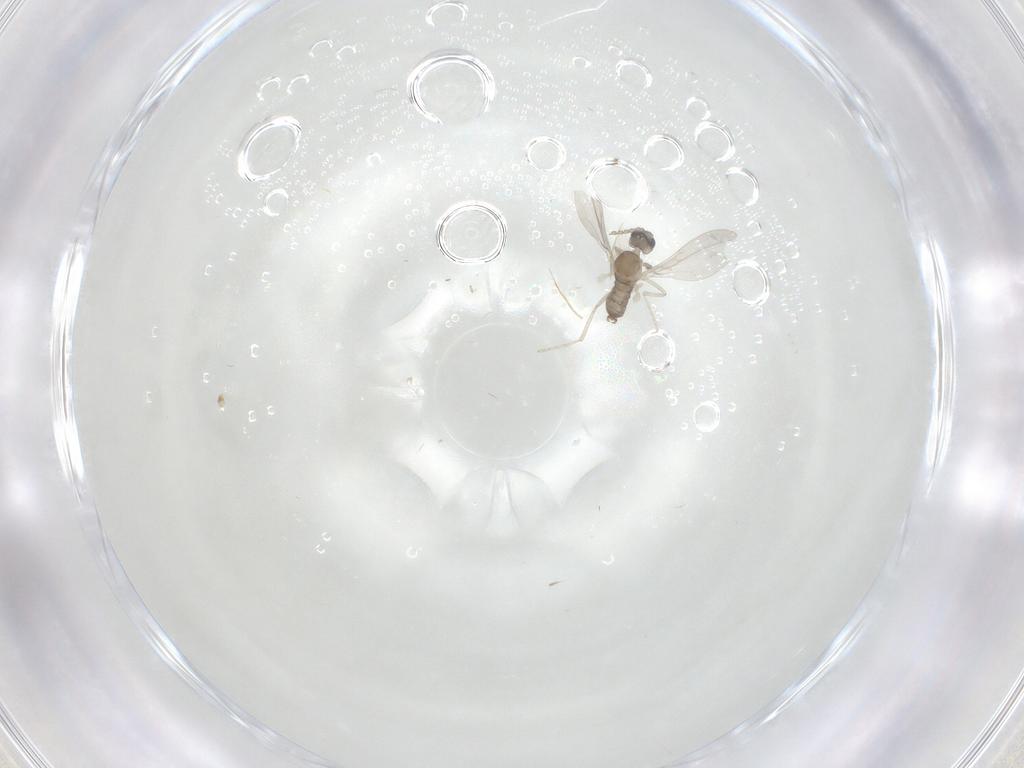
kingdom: Animalia
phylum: Arthropoda
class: Insecta
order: Diptera
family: Cecidomyiidae
